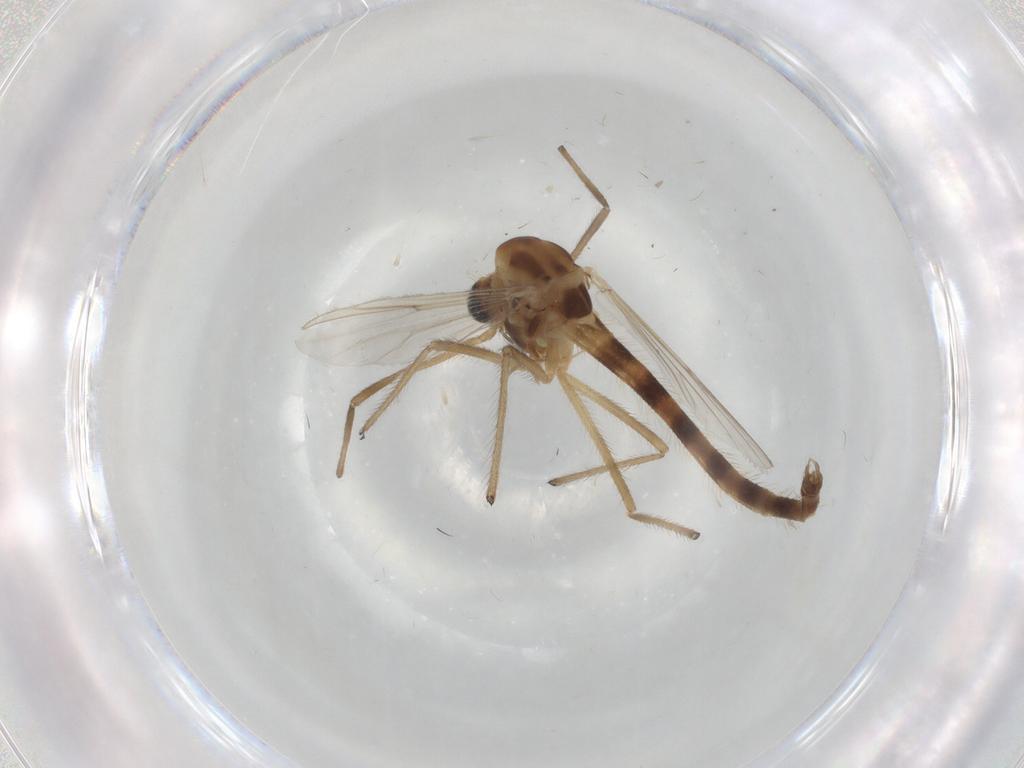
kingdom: Animalia
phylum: Arthropoda
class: Insecta
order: Diptera
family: Chironomidae
